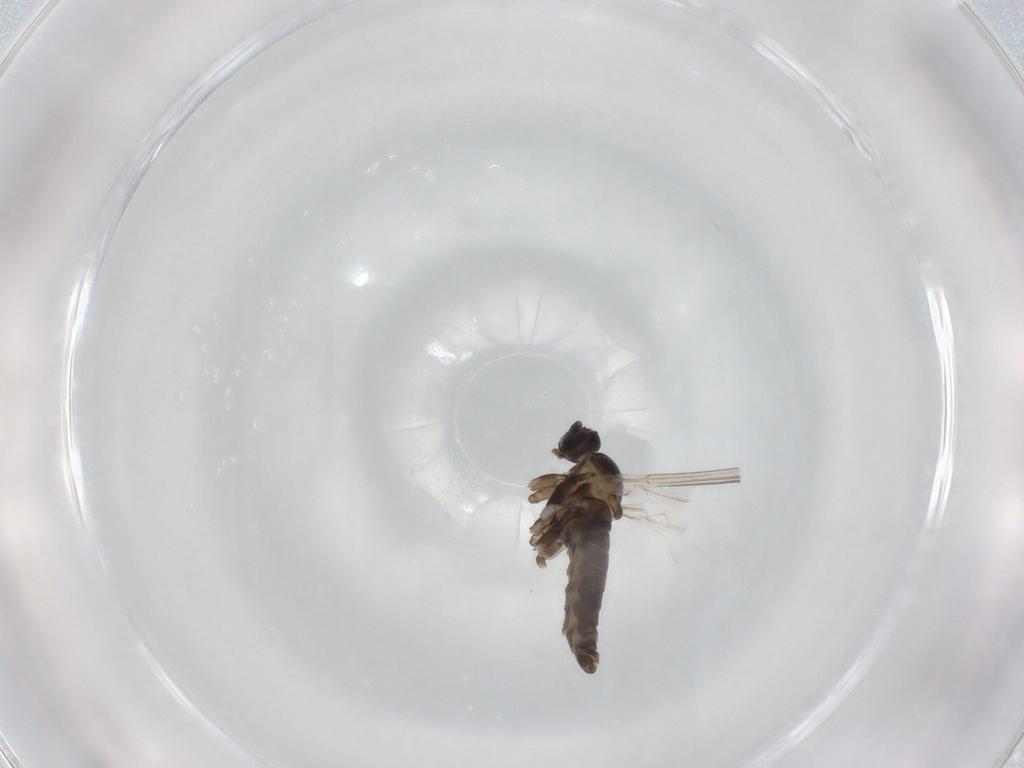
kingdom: Animalia
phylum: Arthropoda
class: Insecta
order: Diptera
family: Cecidomyiidae
